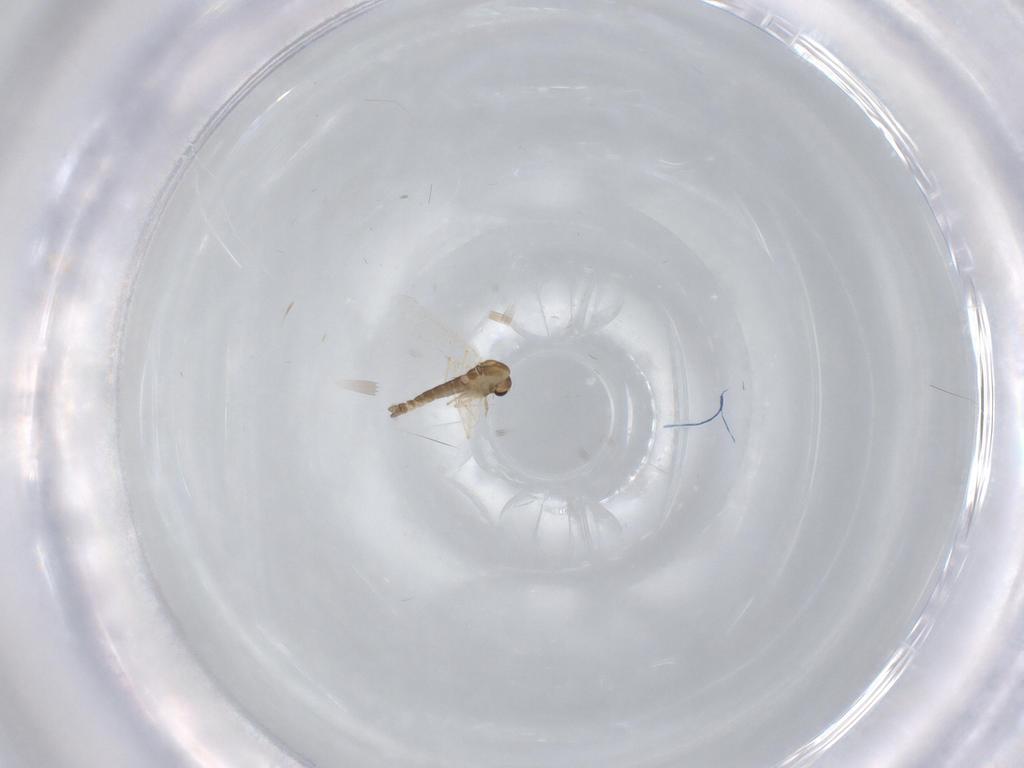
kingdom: Animalia
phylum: Arthropoda
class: Insecta
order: Diptera
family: Chironomidae
